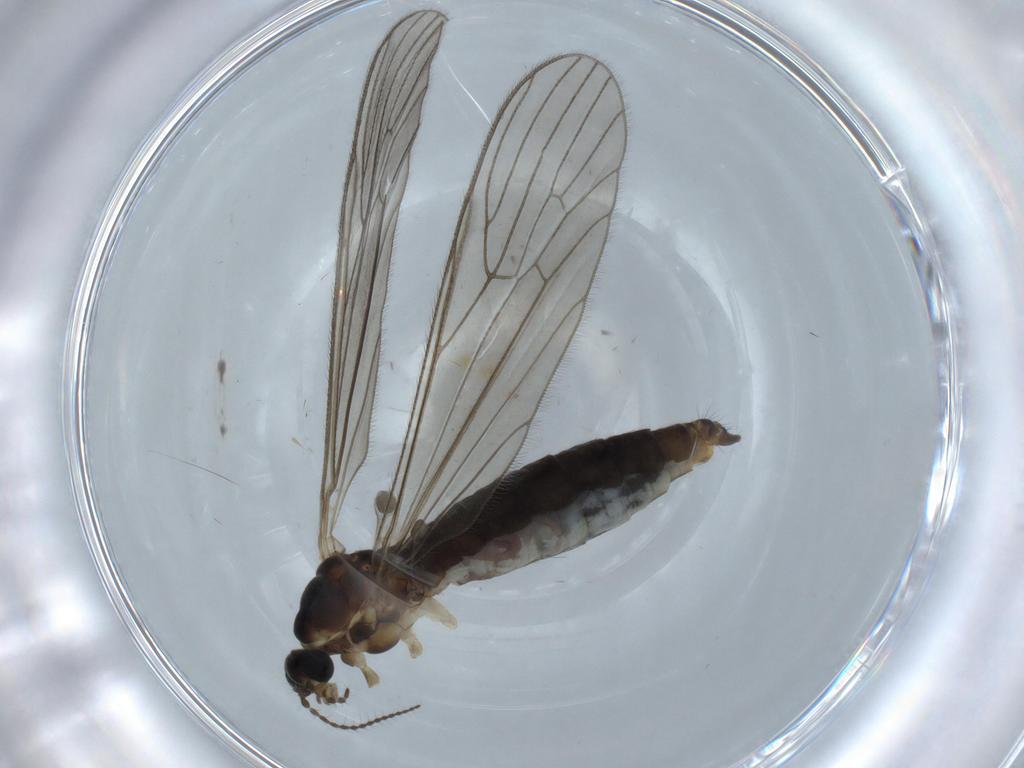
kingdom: Animalia
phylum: Arthropoda
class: Insecta
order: Diptera
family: Limoniidae
